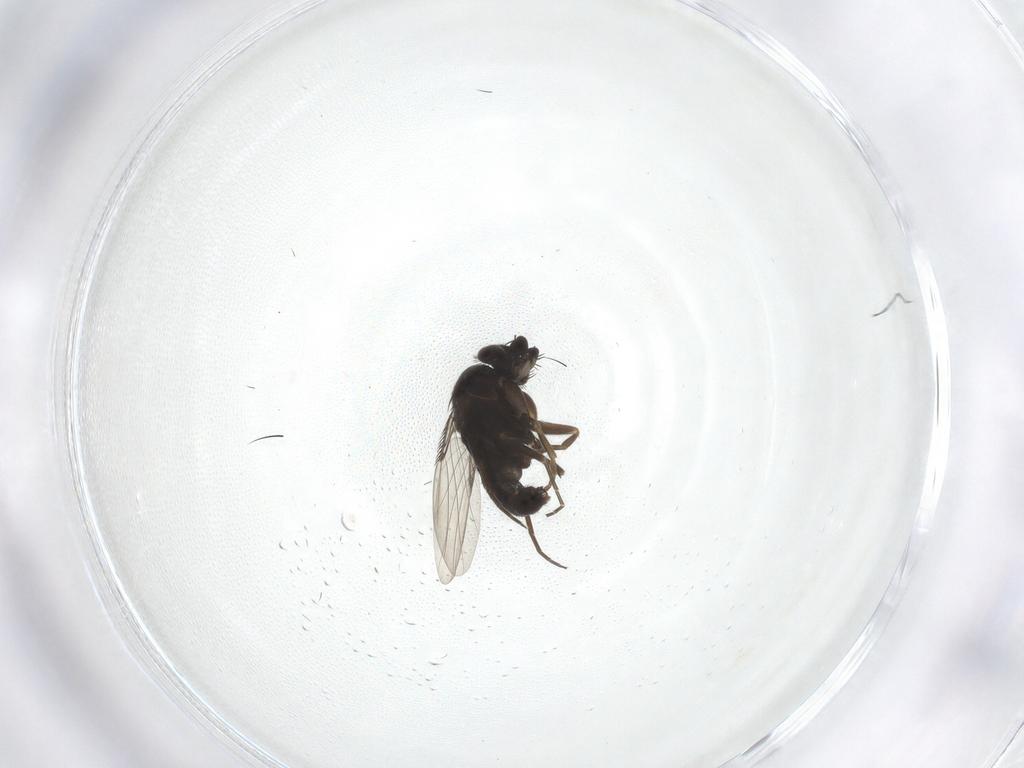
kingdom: Animalia
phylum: Arthropoda
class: Insecta
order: Diptera
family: Phoridae
